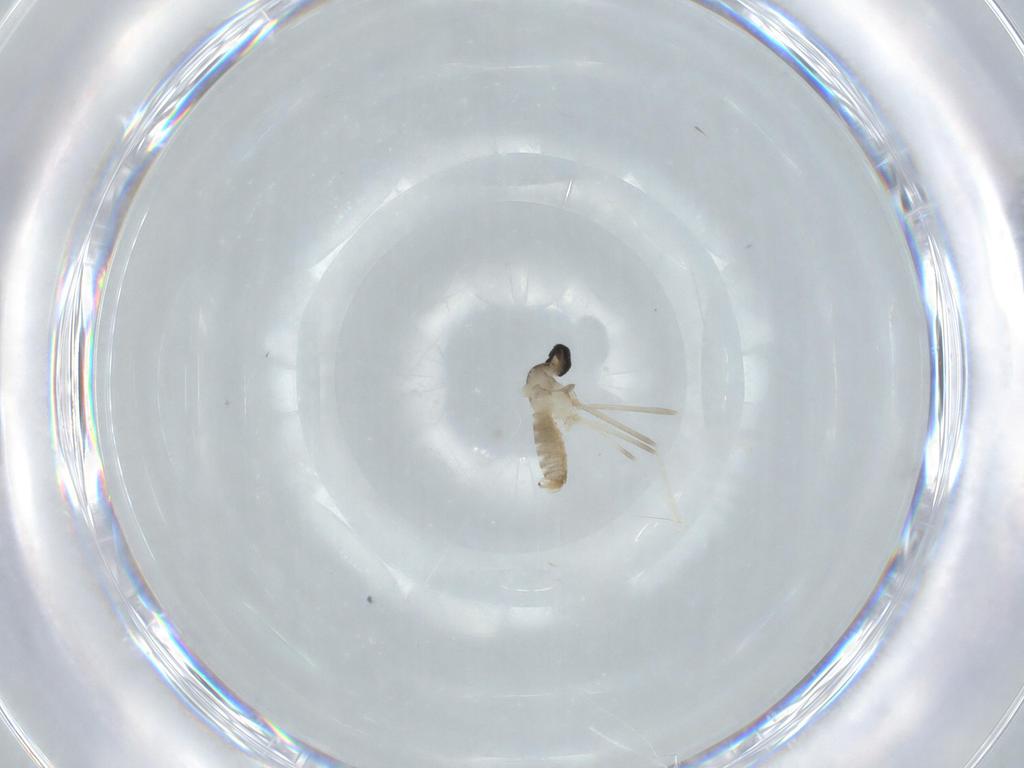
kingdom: Animalia
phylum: Arthropoda
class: Insecta
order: Diptera
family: Cecidomyiidae
